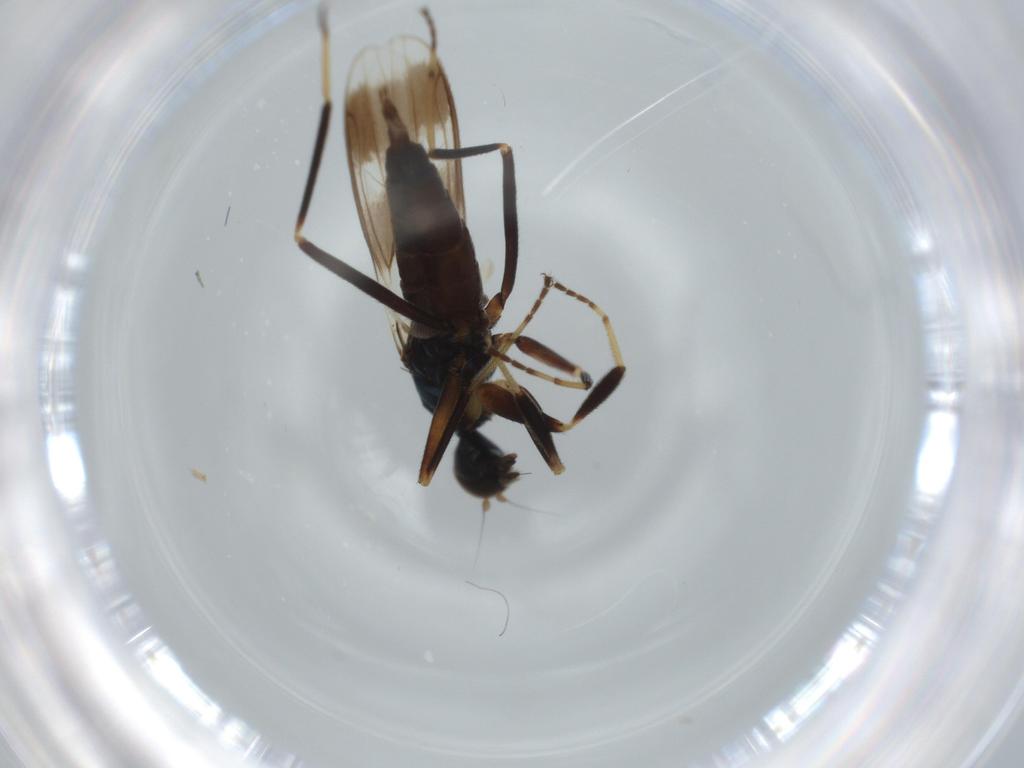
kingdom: Animalia
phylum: Arthropoda
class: Insecta
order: Diptera
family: Hybotidae
